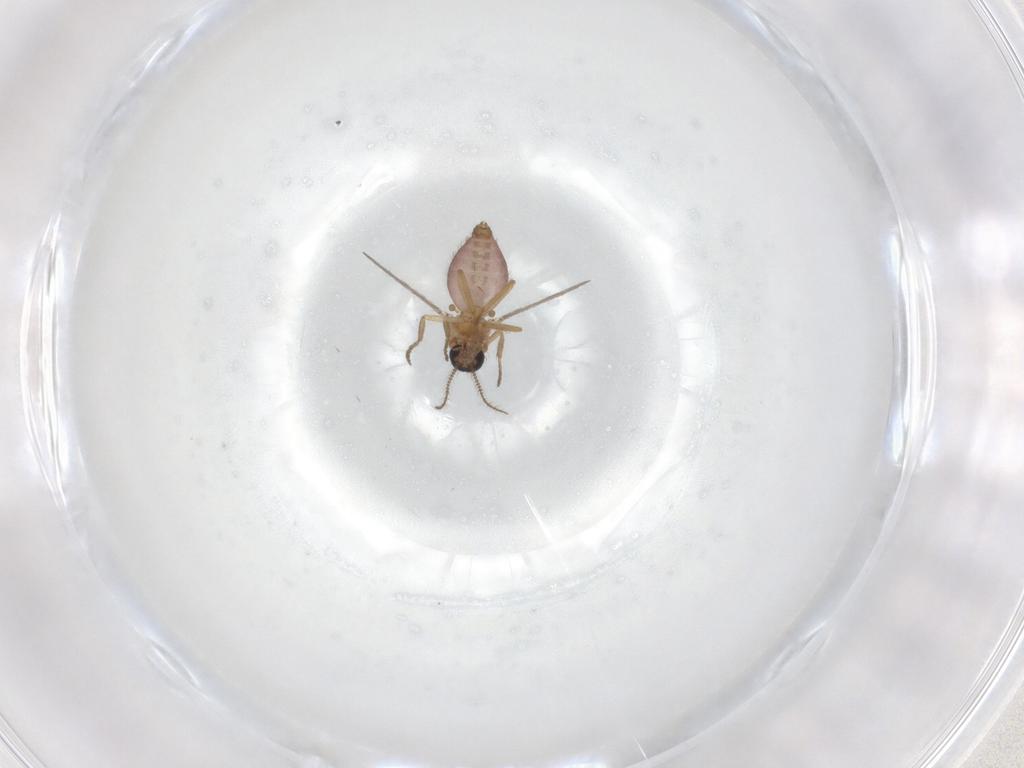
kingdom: Animalia
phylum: Arthropoda
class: Insecta
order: Diptera
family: Ceratopogonidae
